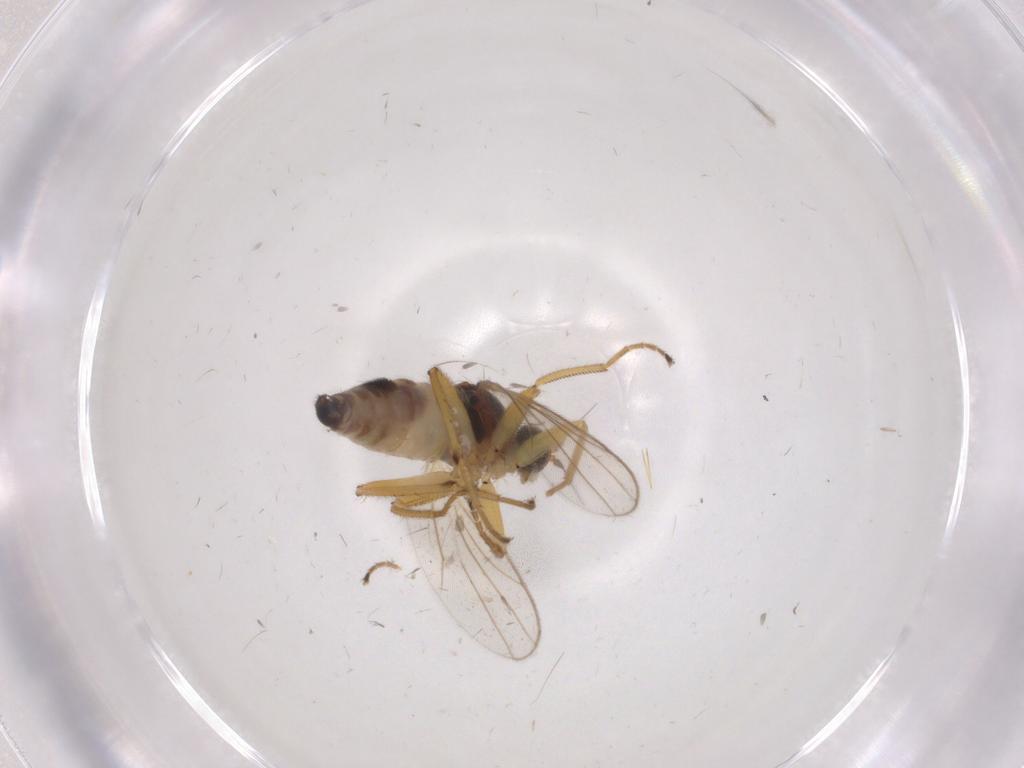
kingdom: Animalia
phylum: Arthropoda
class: Insecta
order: Diptera
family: Hybotidae
